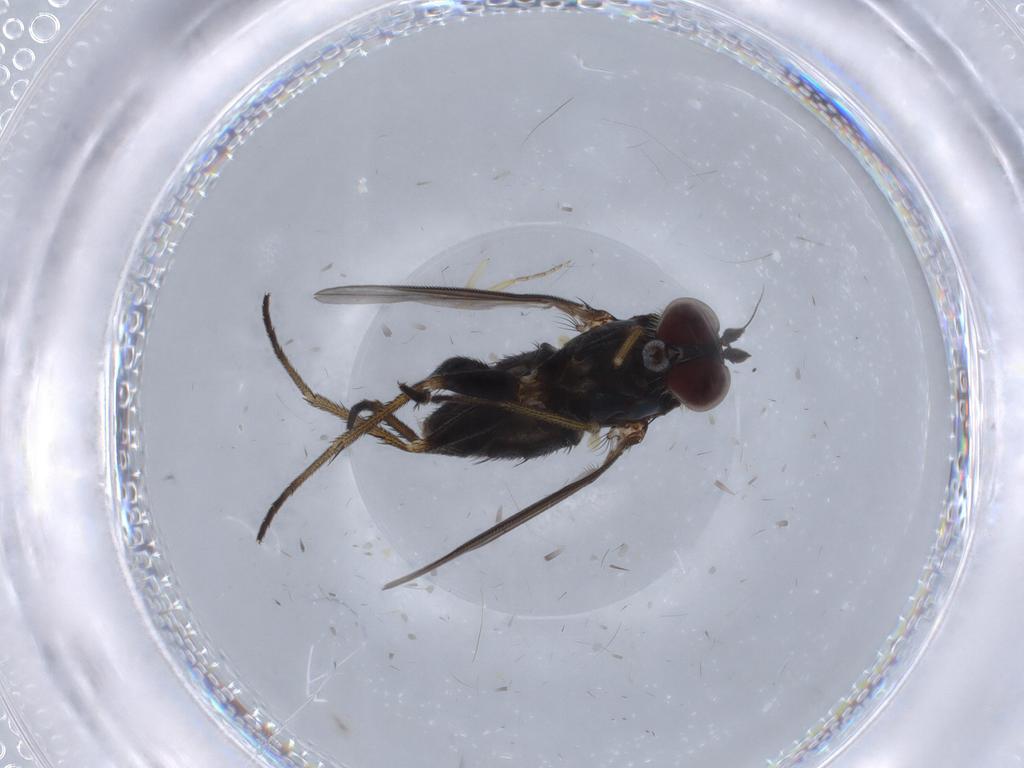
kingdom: Animalia
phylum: Arthropoda
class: Insecta
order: Diptera
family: Dolichopodidae
